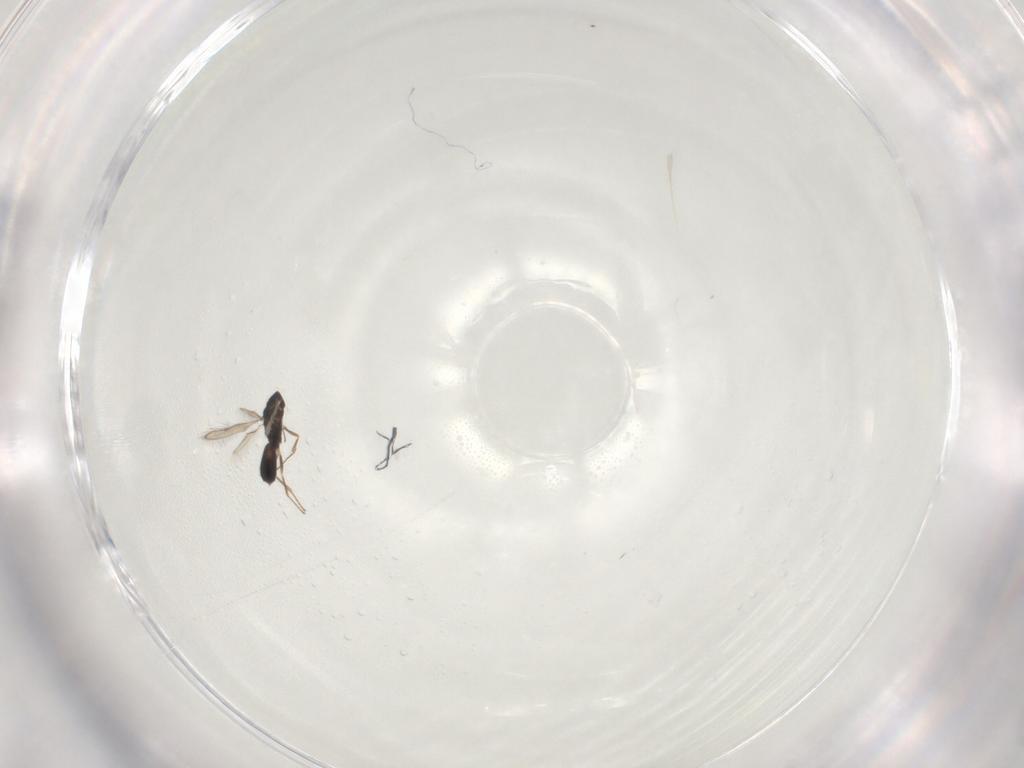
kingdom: Animalia
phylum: Arthropoda
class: Insecta
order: Hymenoptera
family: Pteromalidae
